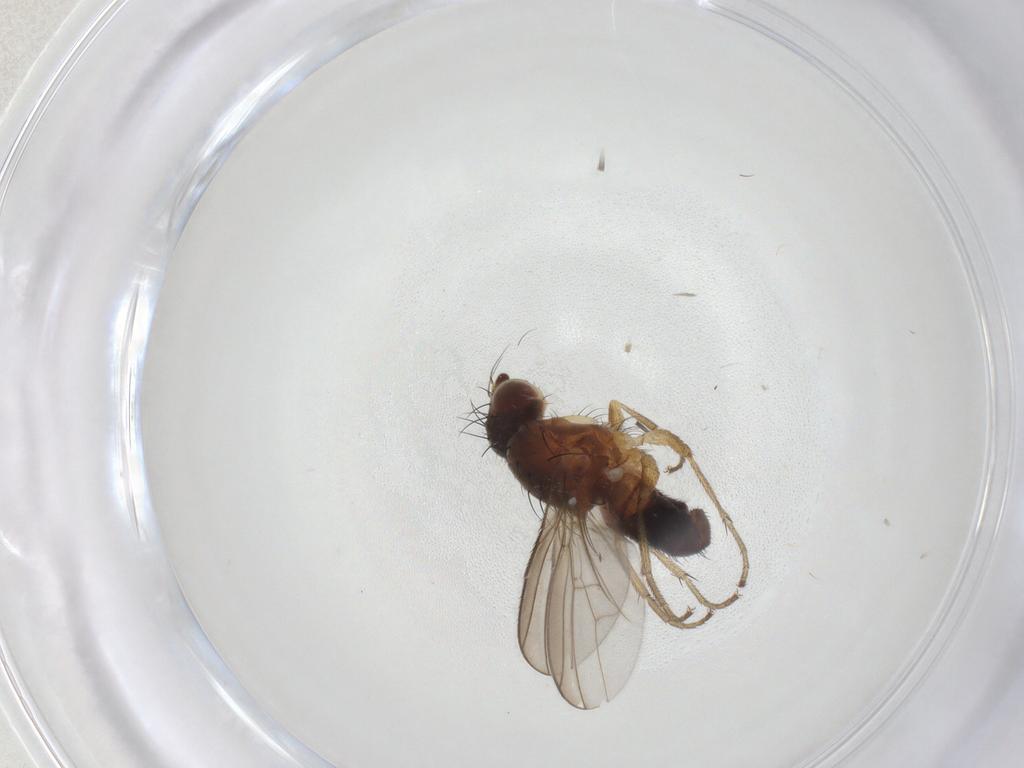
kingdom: Animalia
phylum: Arthropoda
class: Insecta
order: Diptera
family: Heleomyzidae
